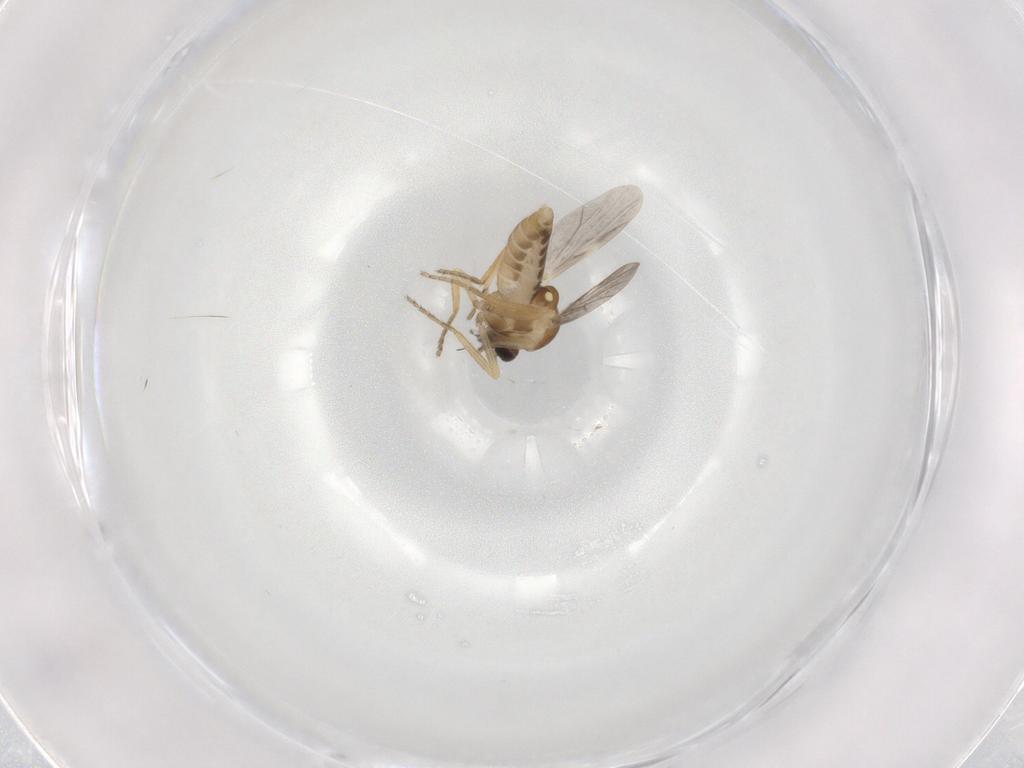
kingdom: Animalia
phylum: Arthropoda
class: Insecta
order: Diptera
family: Ceratopogonidae
